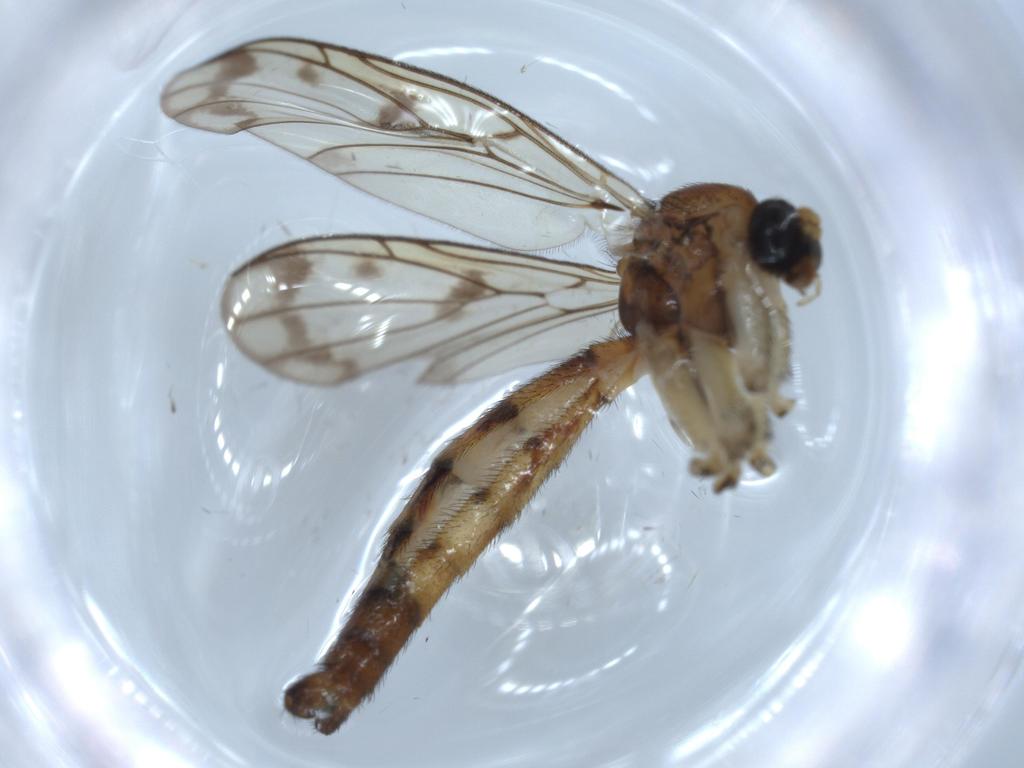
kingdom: Animalia
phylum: Arthropoda
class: Insecta
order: Diptera
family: Hybotidae
